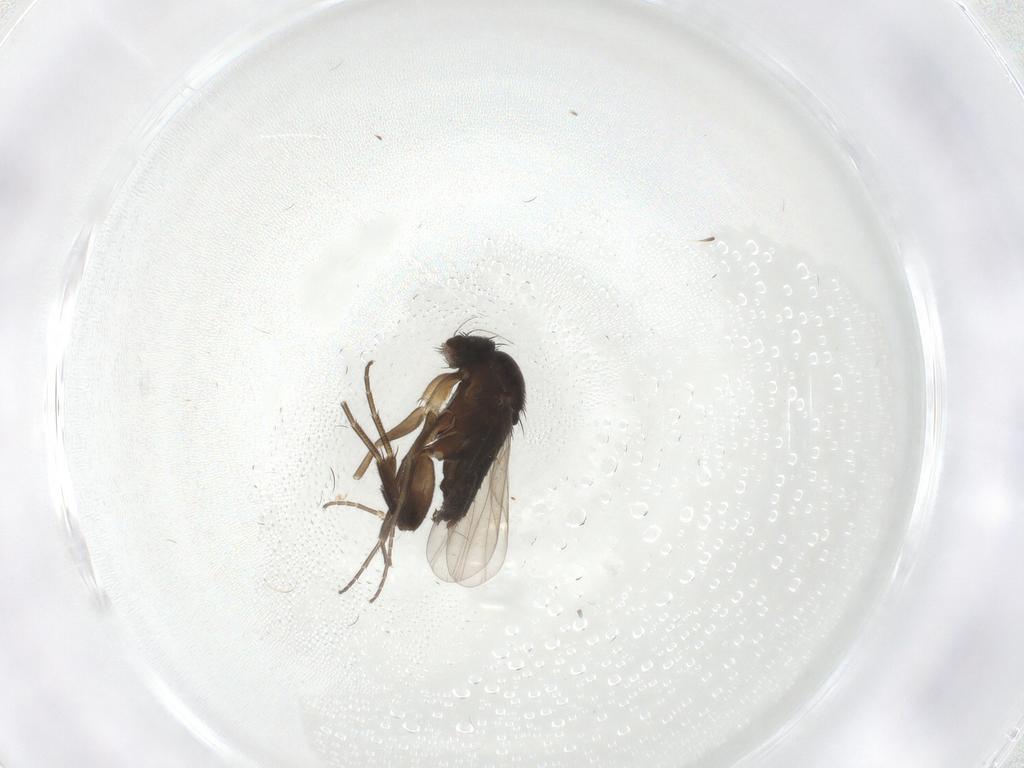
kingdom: Animalia
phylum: Arthropoda
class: Insecta
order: Diptera
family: Phoridae
